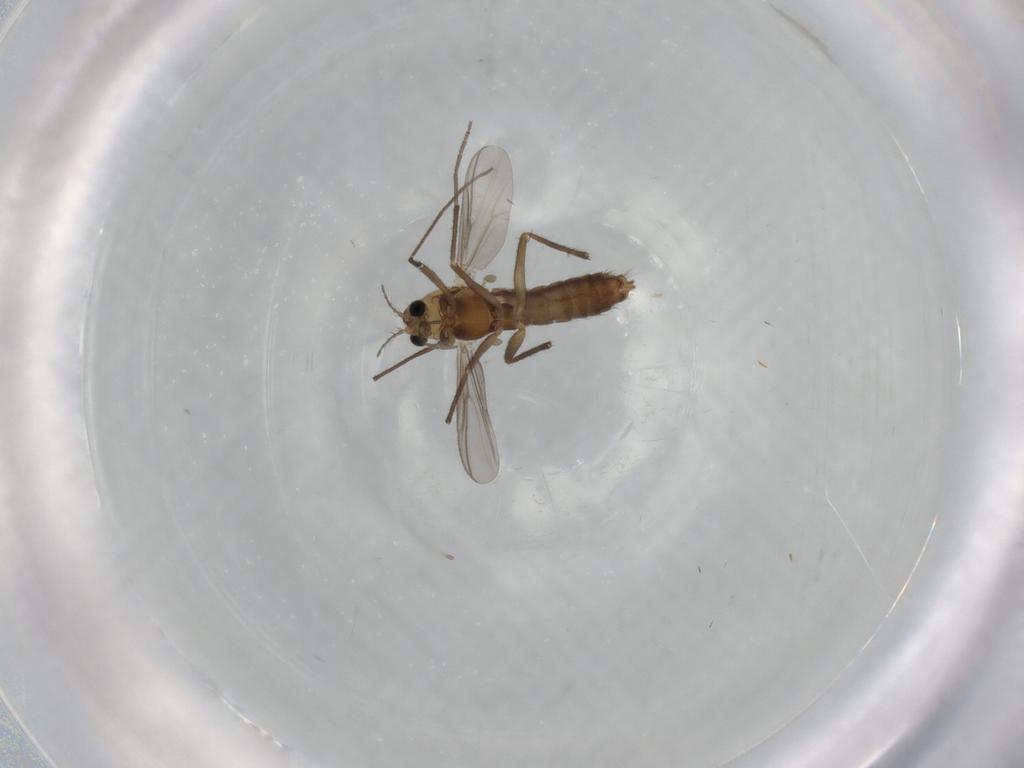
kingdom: Animalia
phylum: Arthropoda
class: Insecta
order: Diptera
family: Chironomidae
